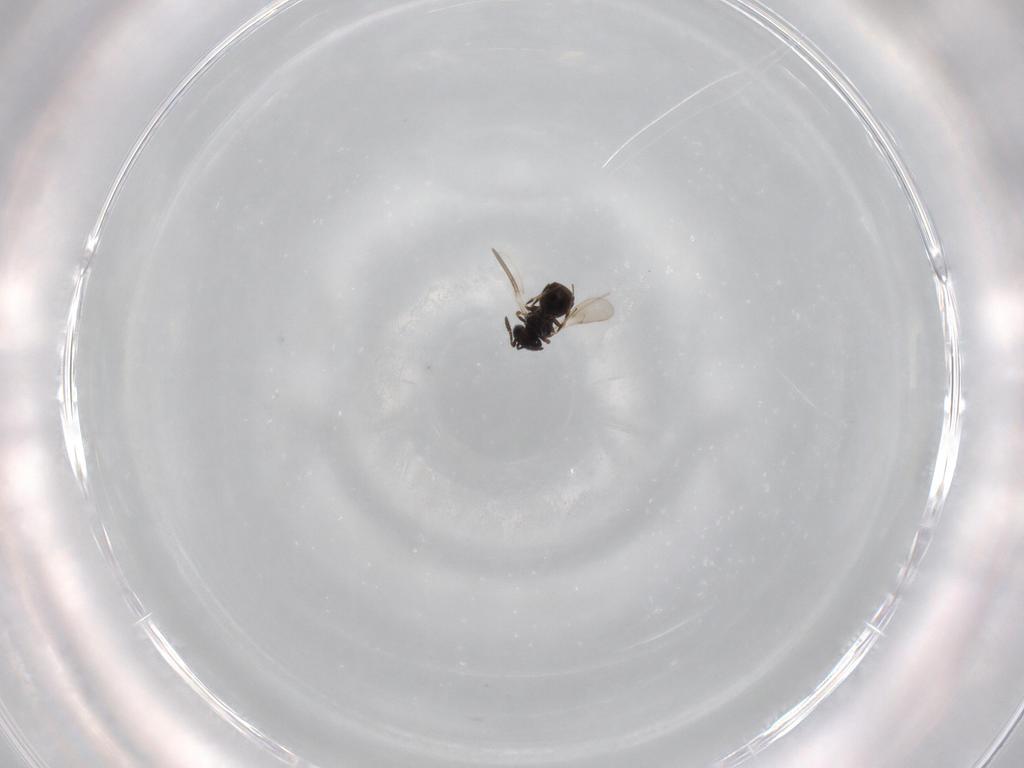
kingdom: Animalia
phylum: Arthropoda
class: Insecta
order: Hymenoptera
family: Scelionidae
